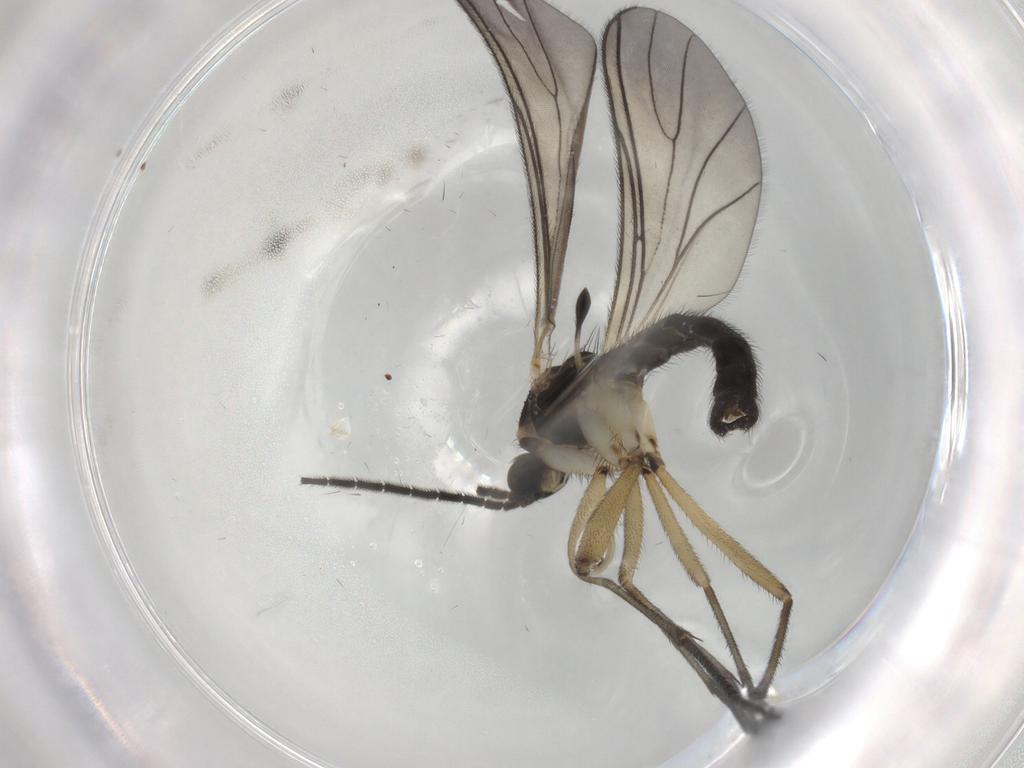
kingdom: Animalia
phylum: Arthropoda
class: Insecta
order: Diptera
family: Sciaridae
